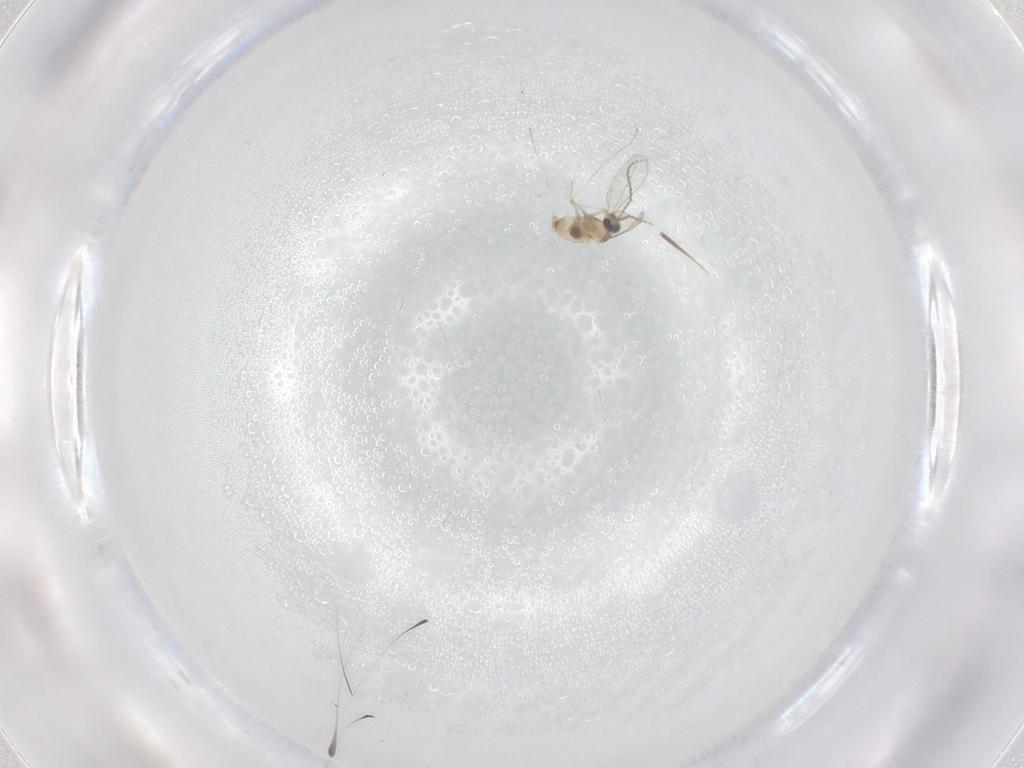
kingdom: Animalia
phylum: Arthropoda
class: Insecta
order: Diptera
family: Cecidomyiidae
